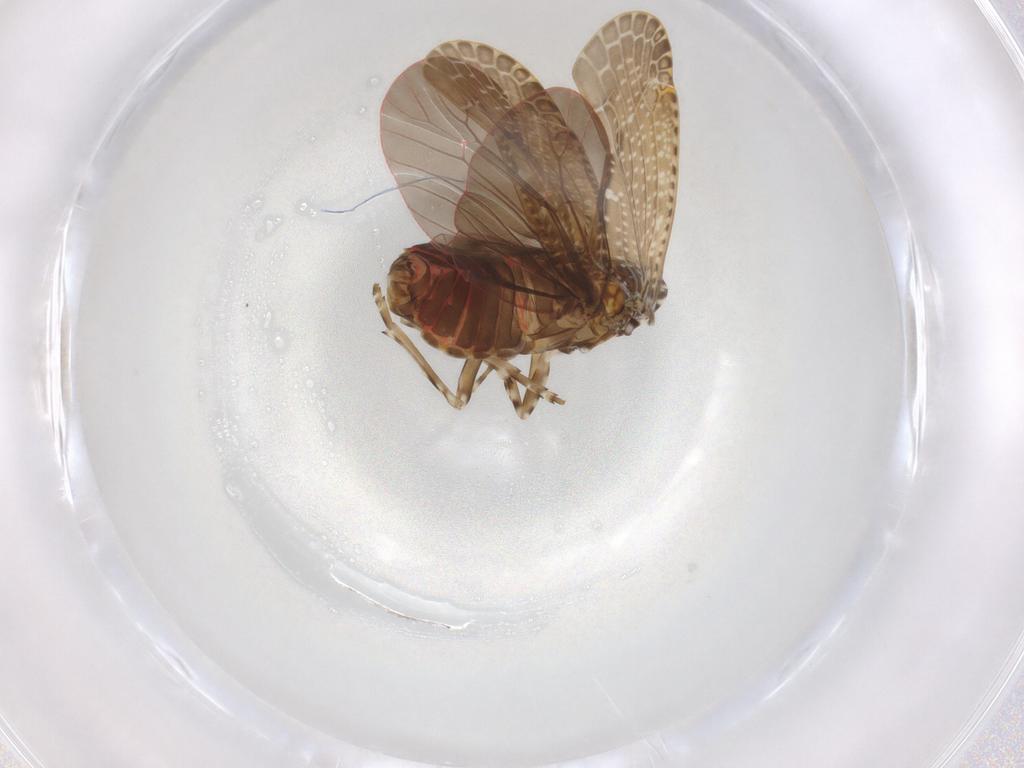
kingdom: Animalia
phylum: Arthropoda
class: Insecta
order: Hemiptera
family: Achilidae
